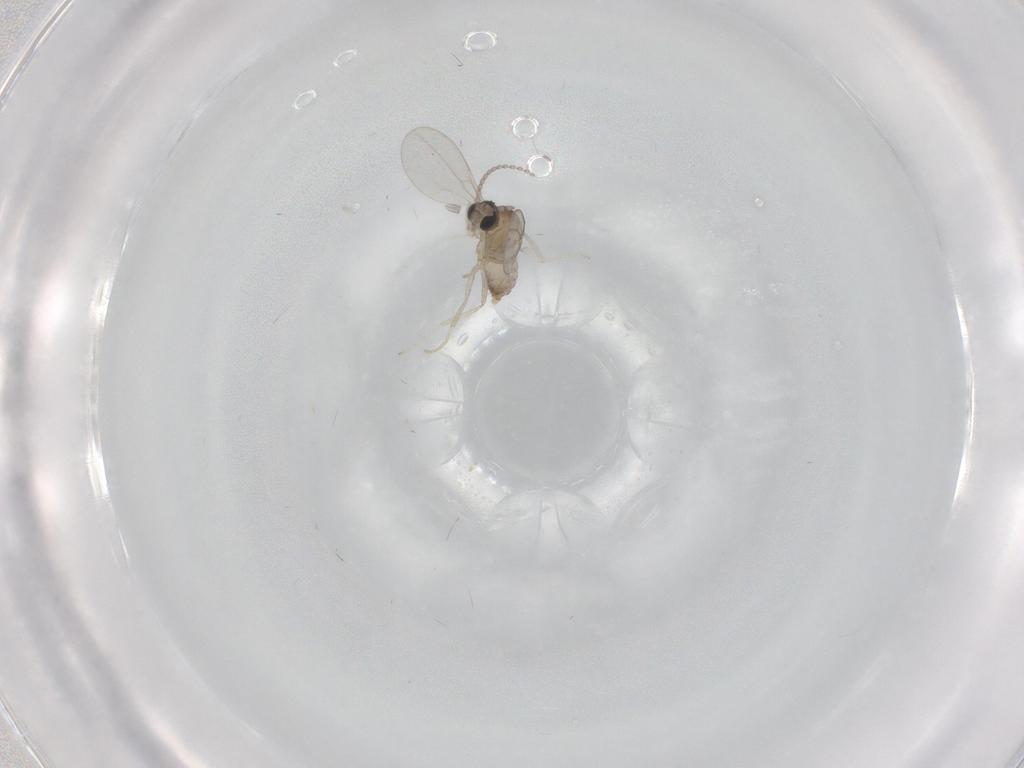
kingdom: Animalia
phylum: Arthropoda
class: Insecta
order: Diptera
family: Cecidomyiidae
